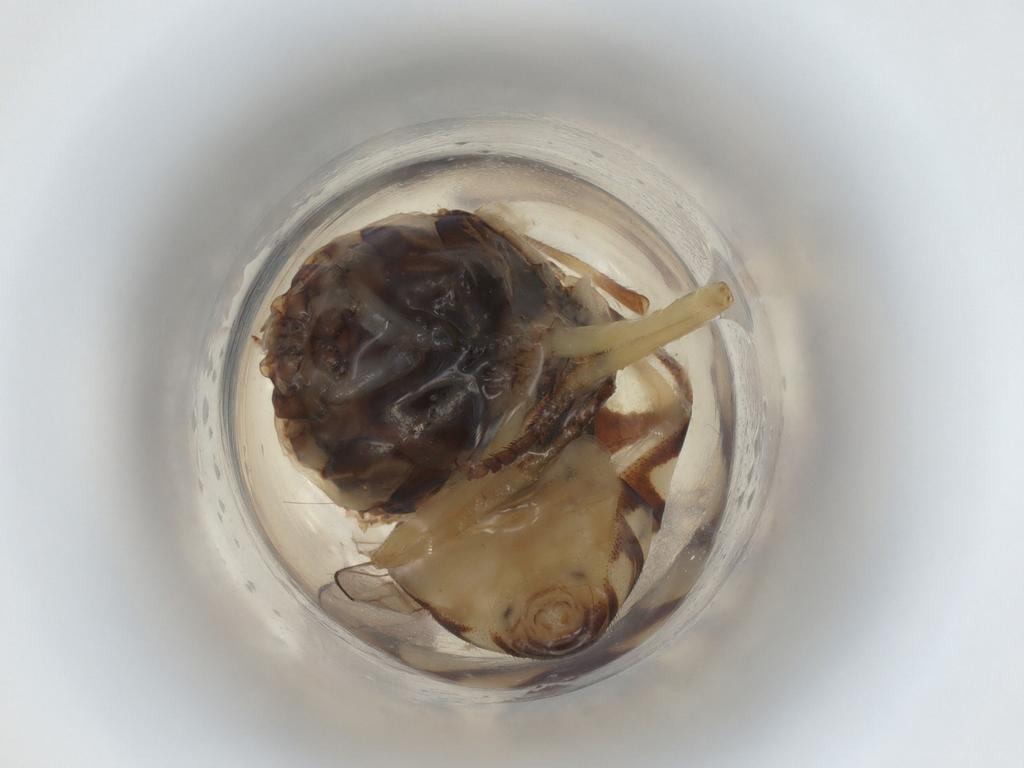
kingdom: Animalia
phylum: Arthropoda
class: Insecta
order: Diptera
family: Syrphidae
